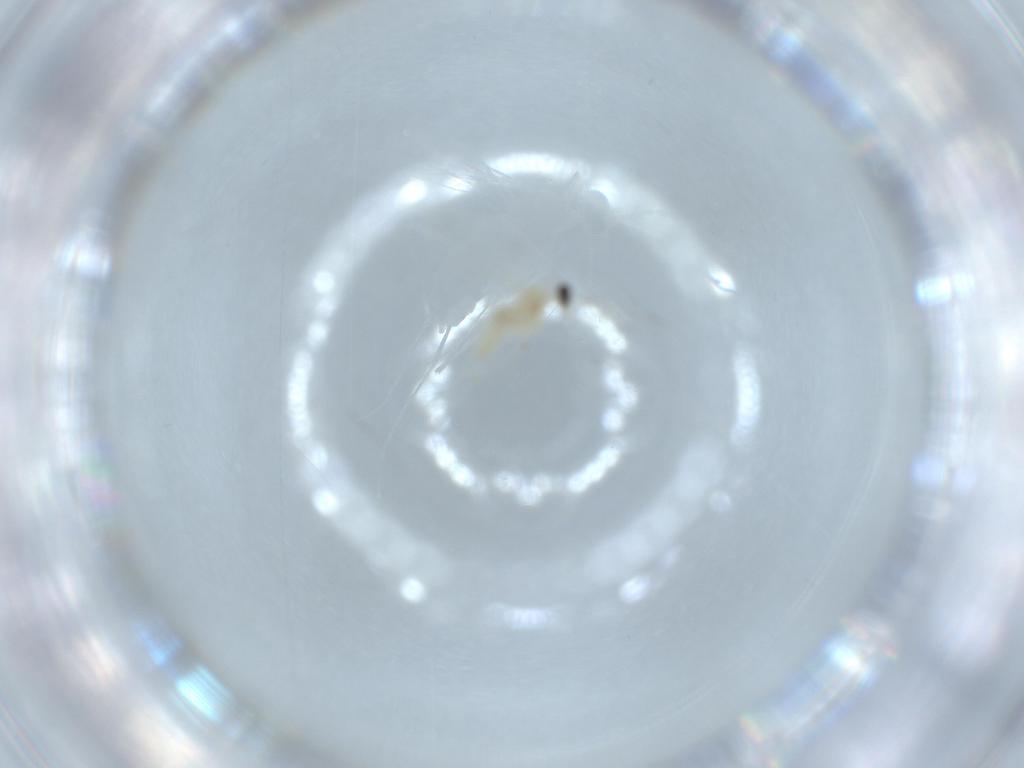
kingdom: Animalia
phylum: Arthropoda
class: Insecta
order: Diptera
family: Cecidomyiidae
